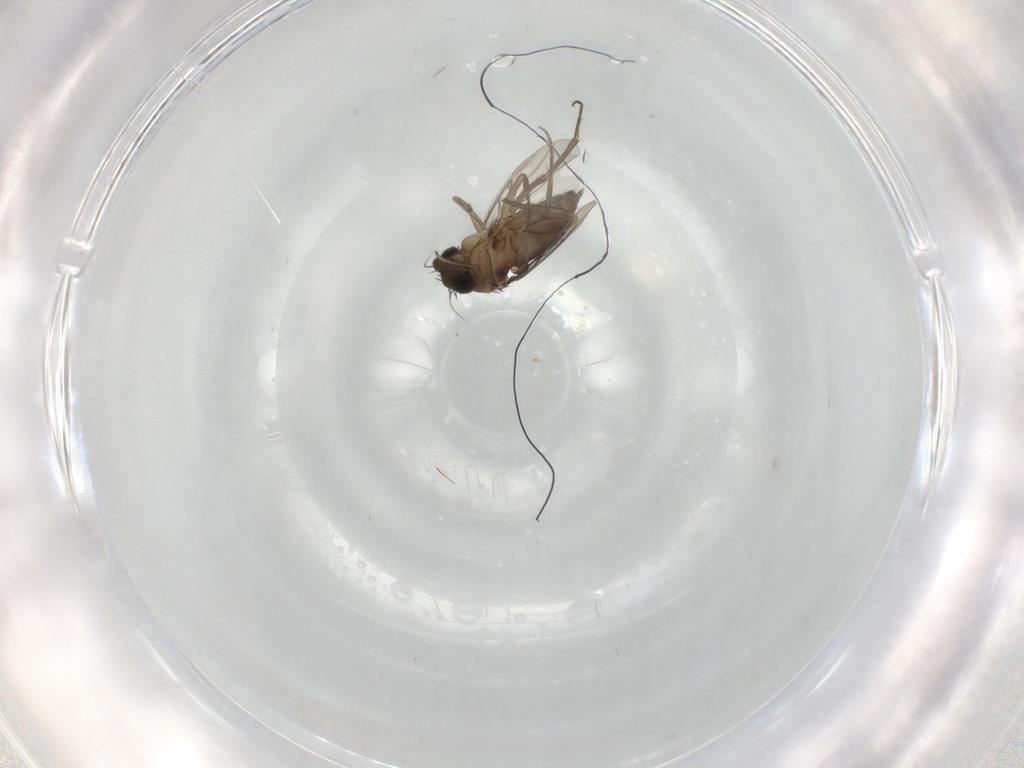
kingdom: Animalia
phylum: Arthropoda
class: Insecta
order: Diptera
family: Phoridae
